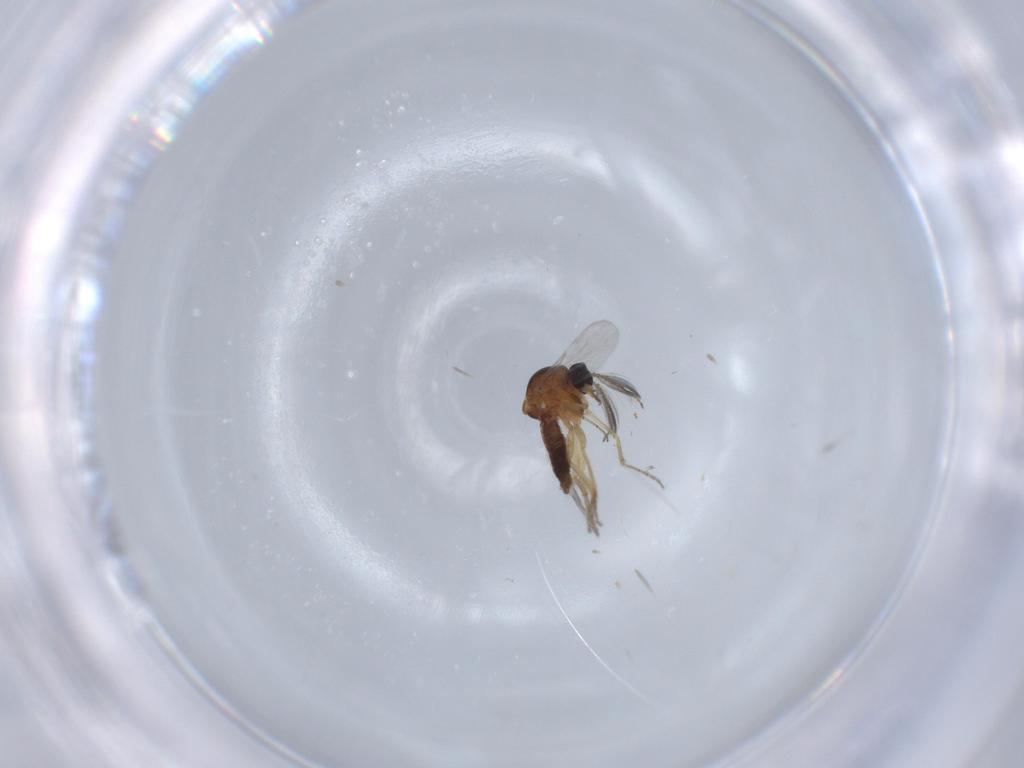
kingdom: Animalia
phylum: Arthropoda
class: Insecta
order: Diptera
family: Ceratopogonidae
